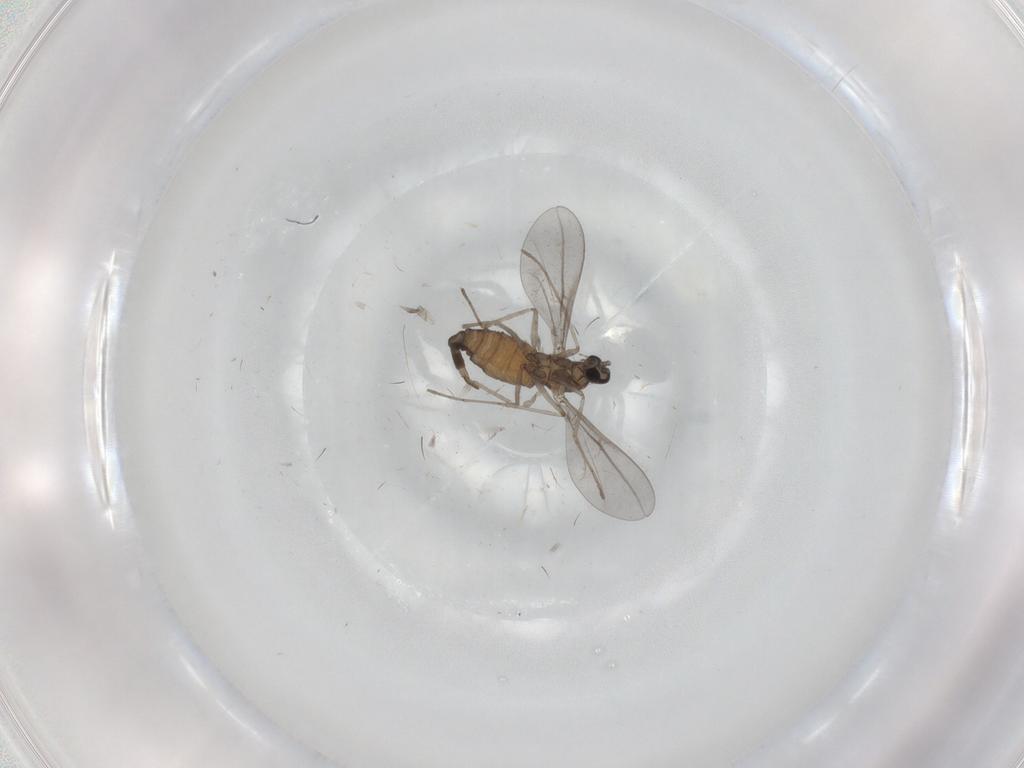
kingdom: Animalia
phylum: Arthropoda
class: Insecta
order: Diptera
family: Cecidomyiidae
